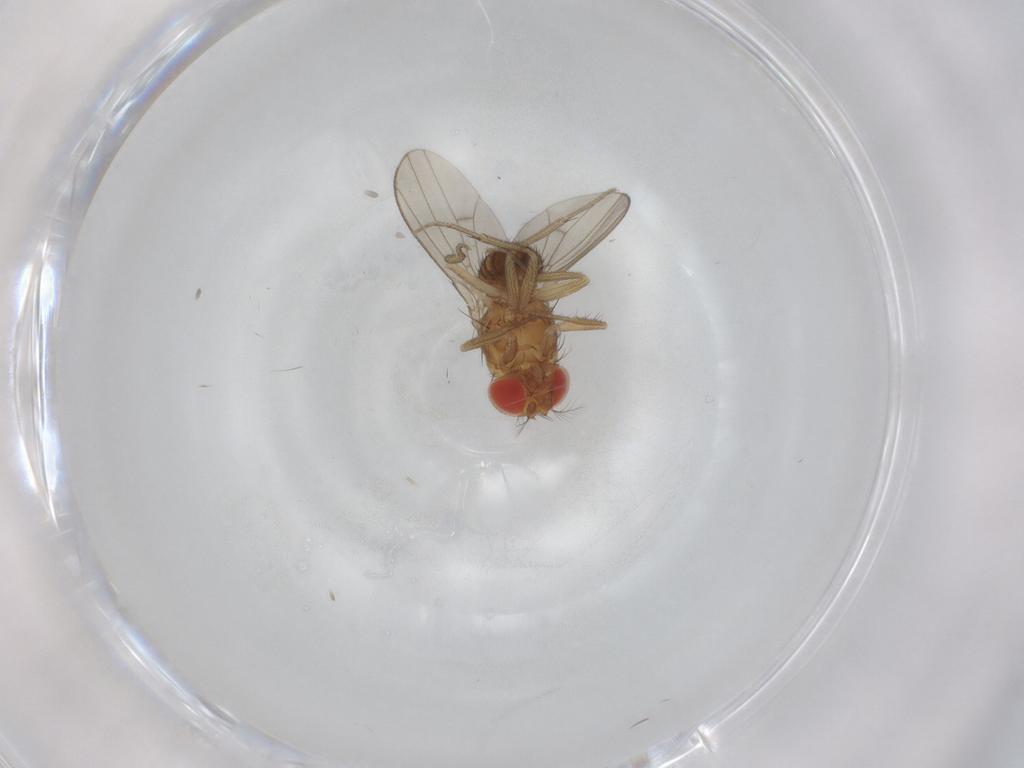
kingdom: Animalia
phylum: Arthropoda
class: Insecta
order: Diptera
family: Drosophilidae
